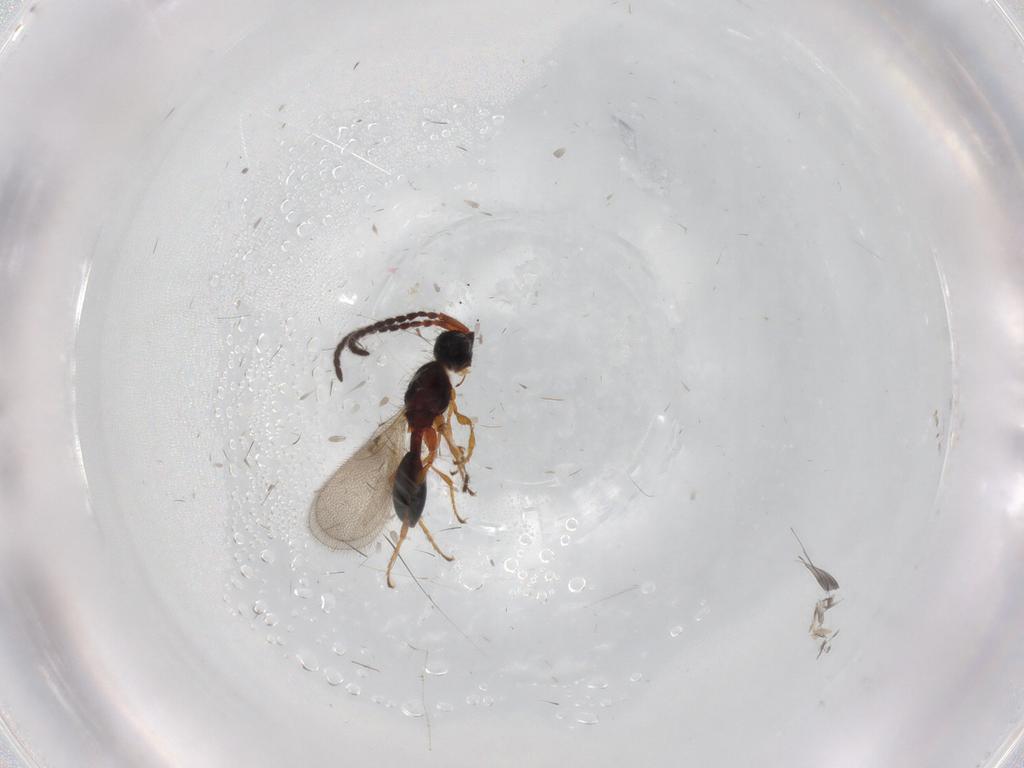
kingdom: Animalia
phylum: Arthropoda
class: Insecta
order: Hymenoptera
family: Diapriidae
